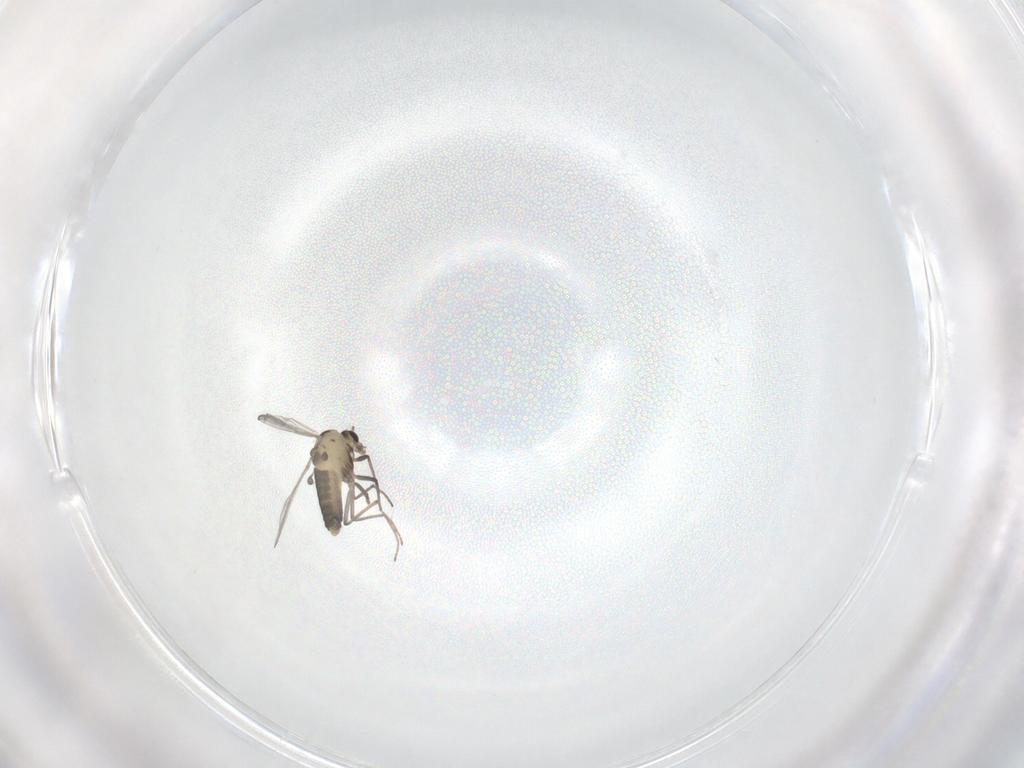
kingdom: Animalia
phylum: Arthropoda
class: Insecta
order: Diptera
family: Chironomidae
